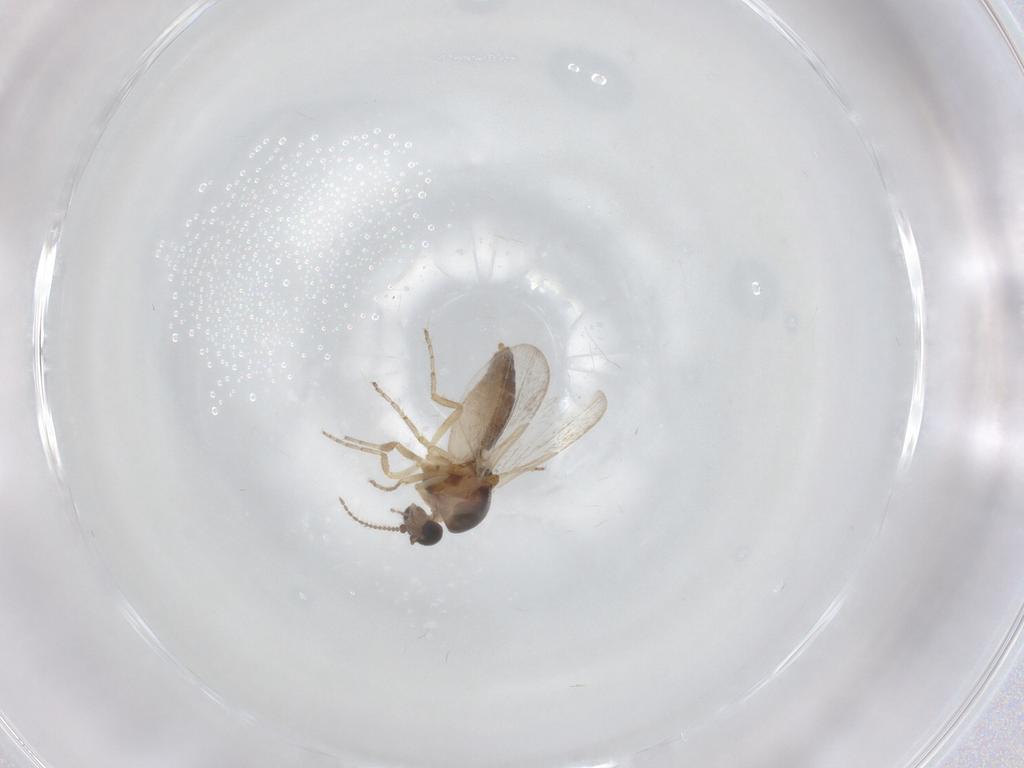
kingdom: Animalia
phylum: Arthropoda
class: Insecta
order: Diptera
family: Ceratopogonidae
